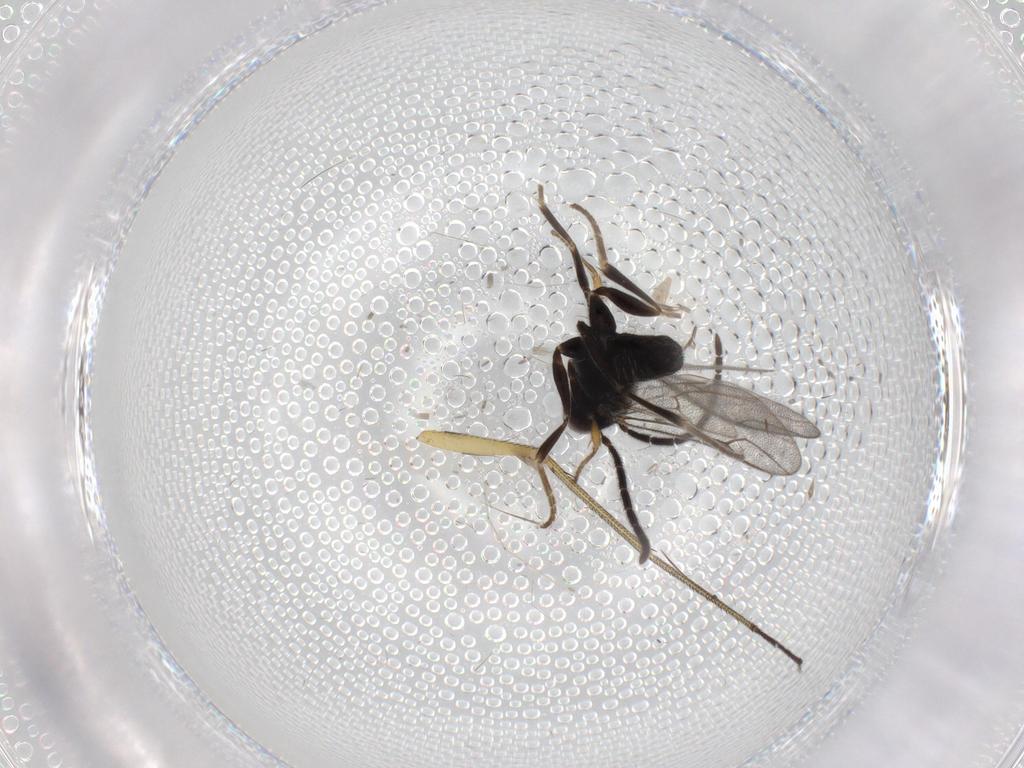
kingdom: Animalia
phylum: Arthropoda
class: Insecta
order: Hymenoptera
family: Dryinidae
